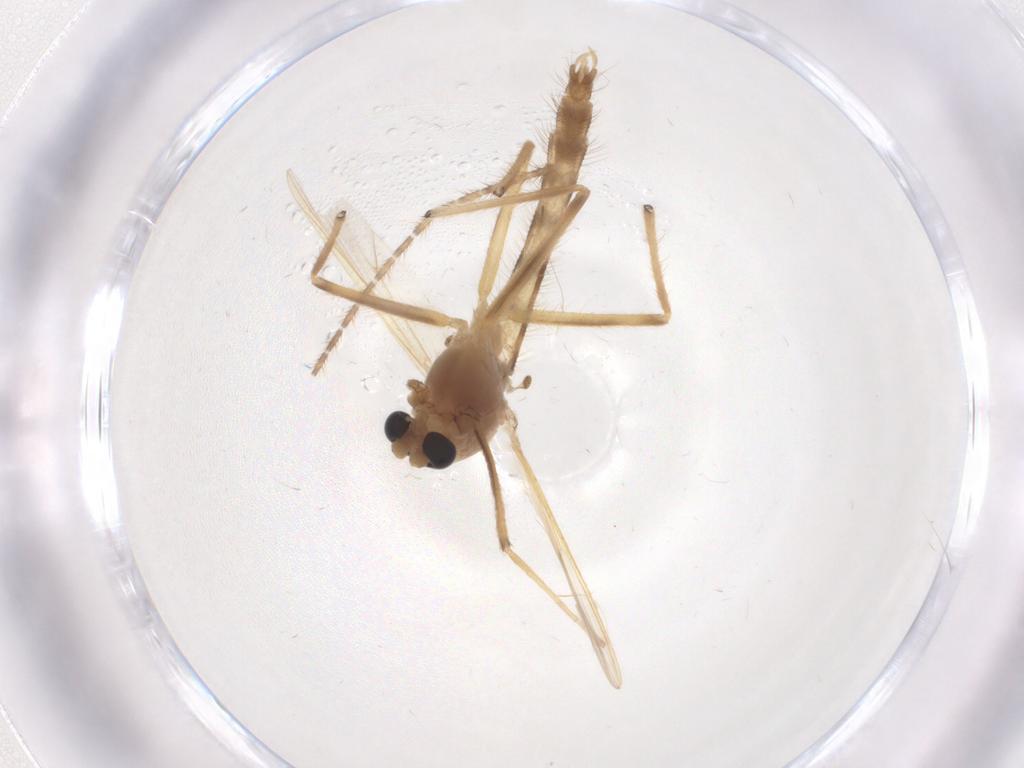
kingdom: Animalia
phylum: Arthropoda
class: Insecta
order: Diptera
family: Chironomidae
